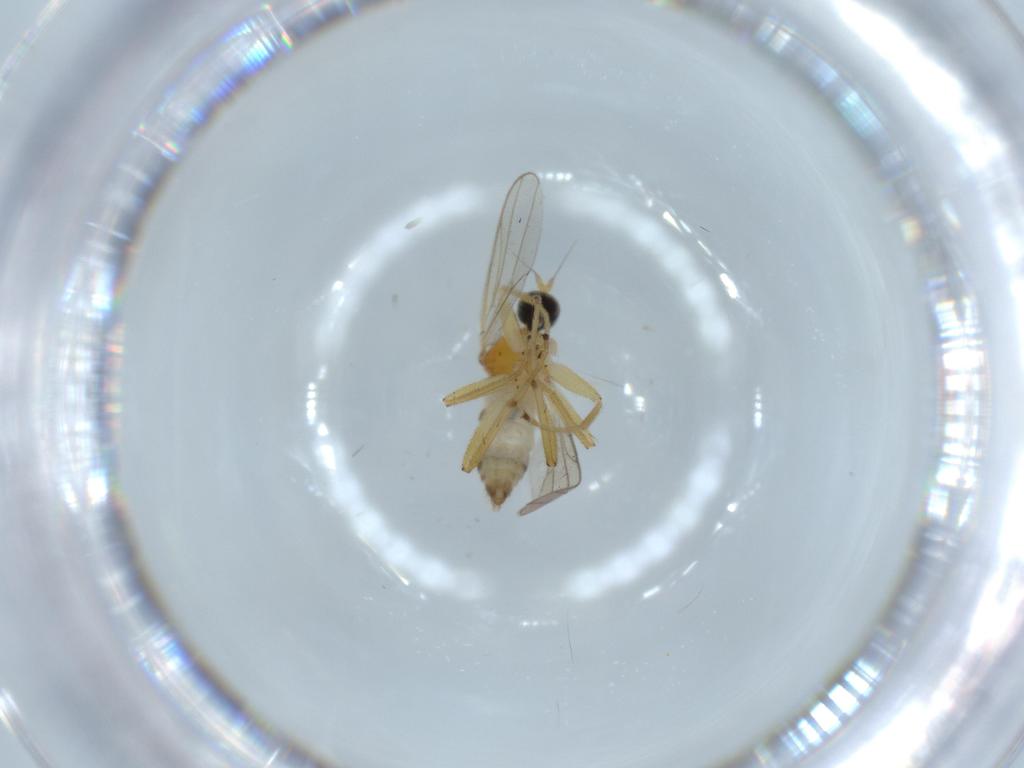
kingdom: Animalia
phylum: Arthropoda
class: Insecta
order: Diptera
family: Hybotidae
